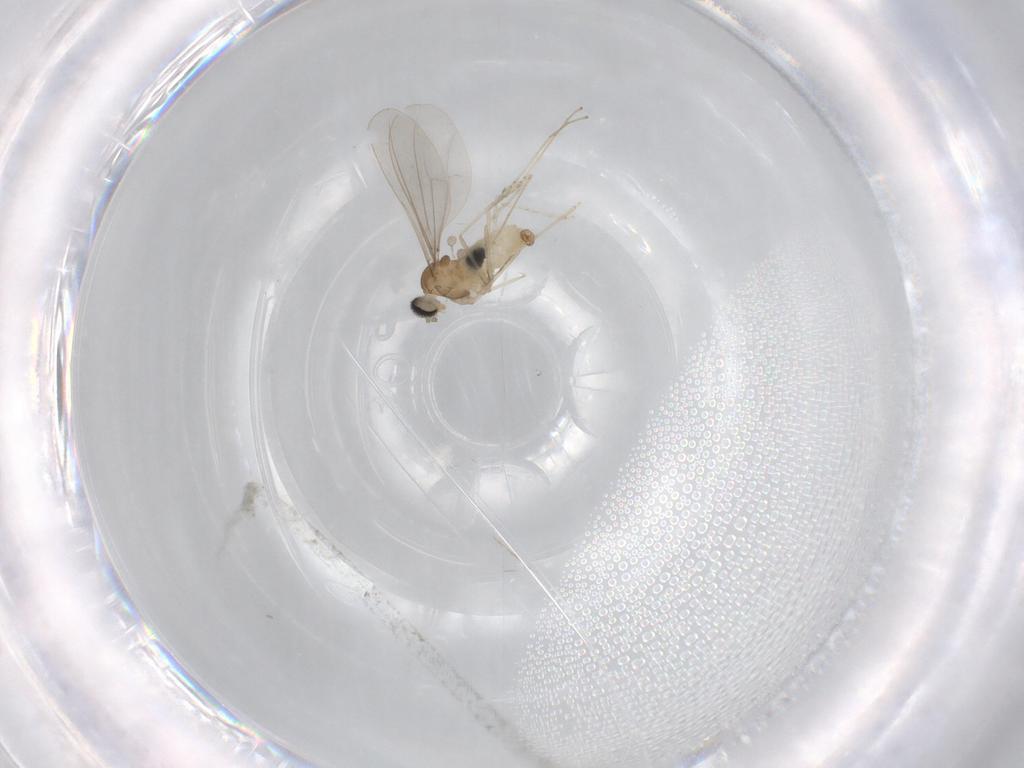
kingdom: Animalia
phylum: Arthropoda
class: Insecta
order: Diptera
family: Cecidomyiidae
